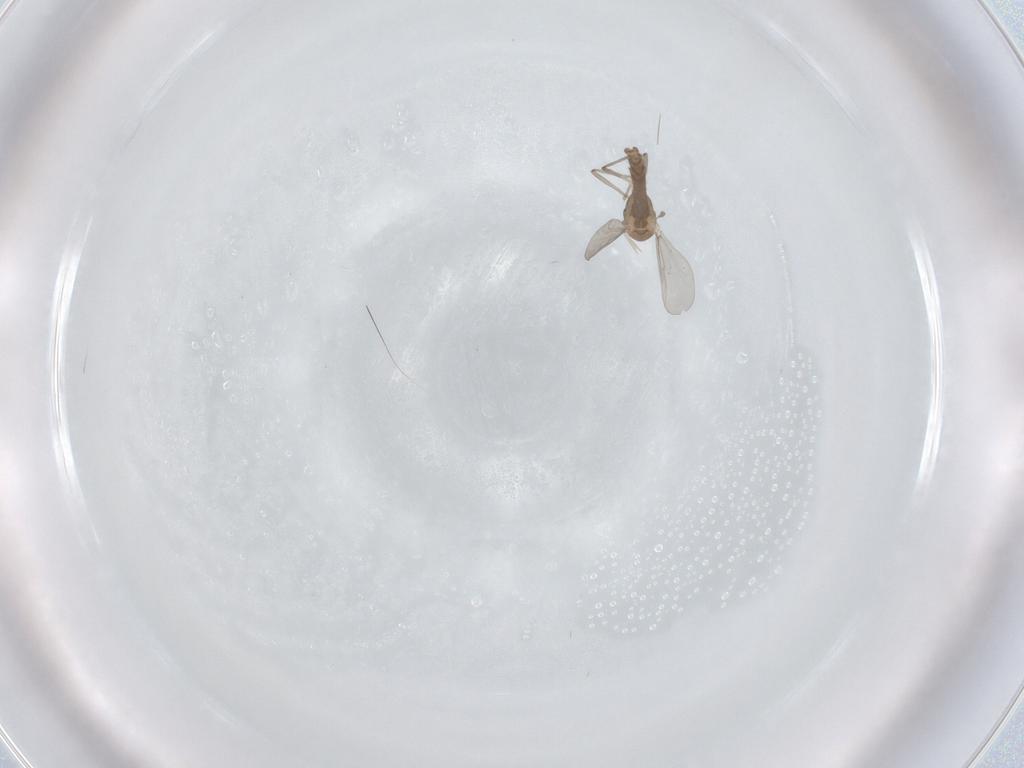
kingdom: Animalia
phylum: Arthropoda
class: Insecta
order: Diptera
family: Chironomidae
